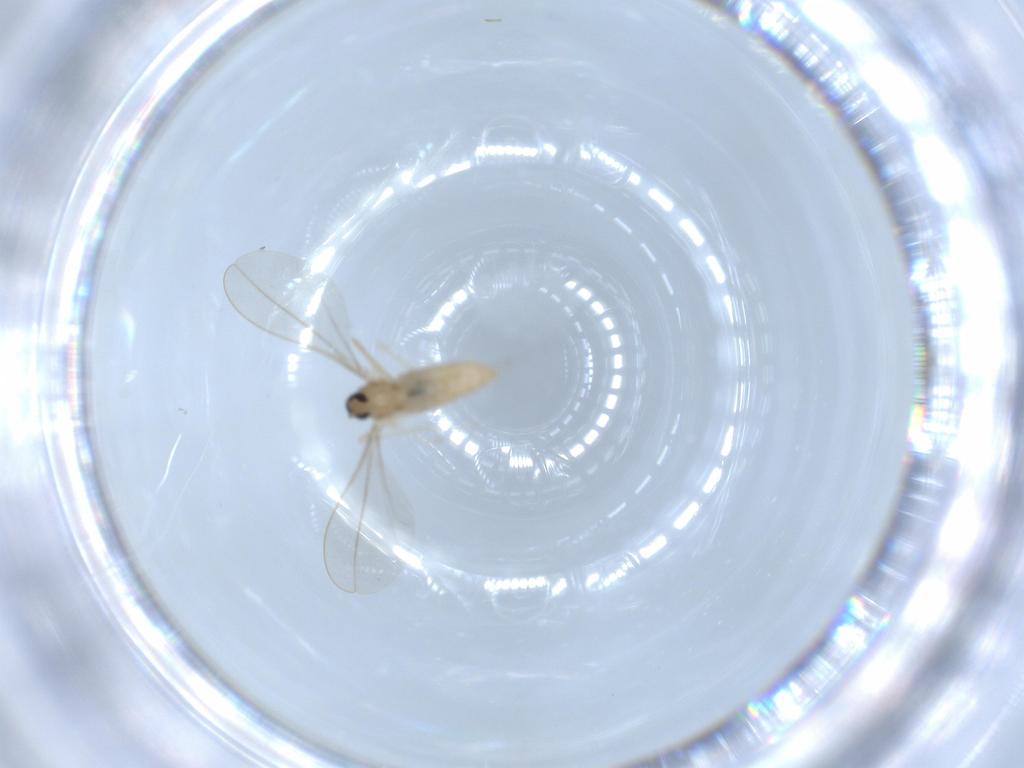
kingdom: Animalia
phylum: Arthropoda
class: Insecta
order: Diptera
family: Cecidomyiidae
